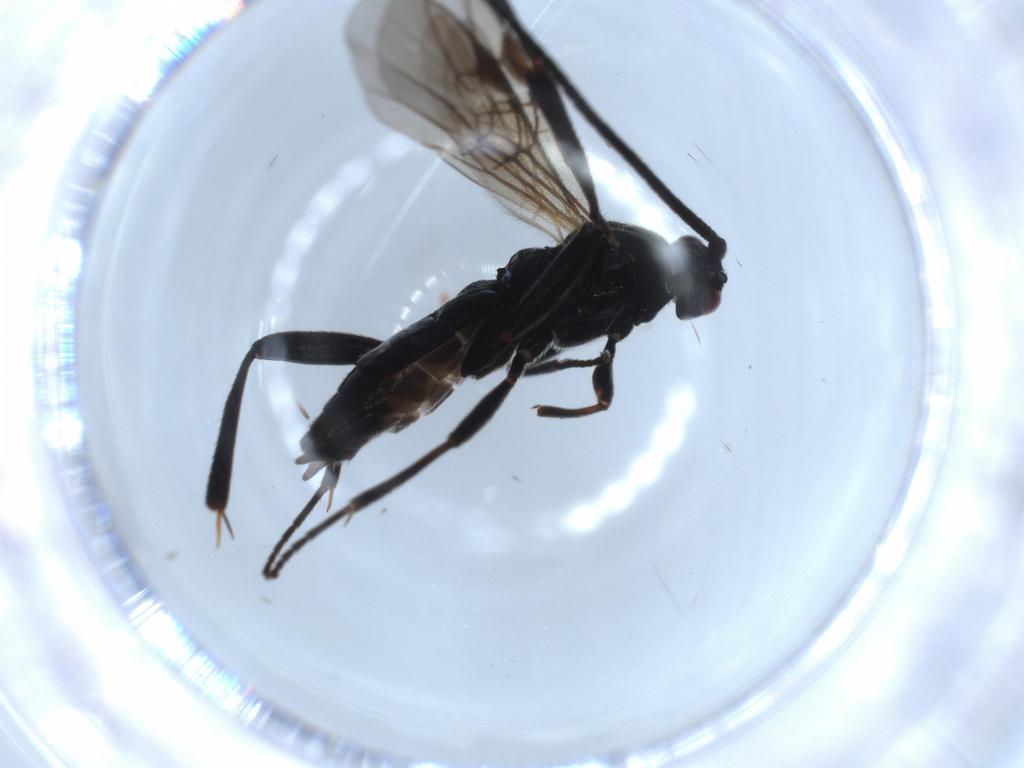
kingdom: Animalia
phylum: Arthropoda
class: Insecta
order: Hymenoptera
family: Braconidae
